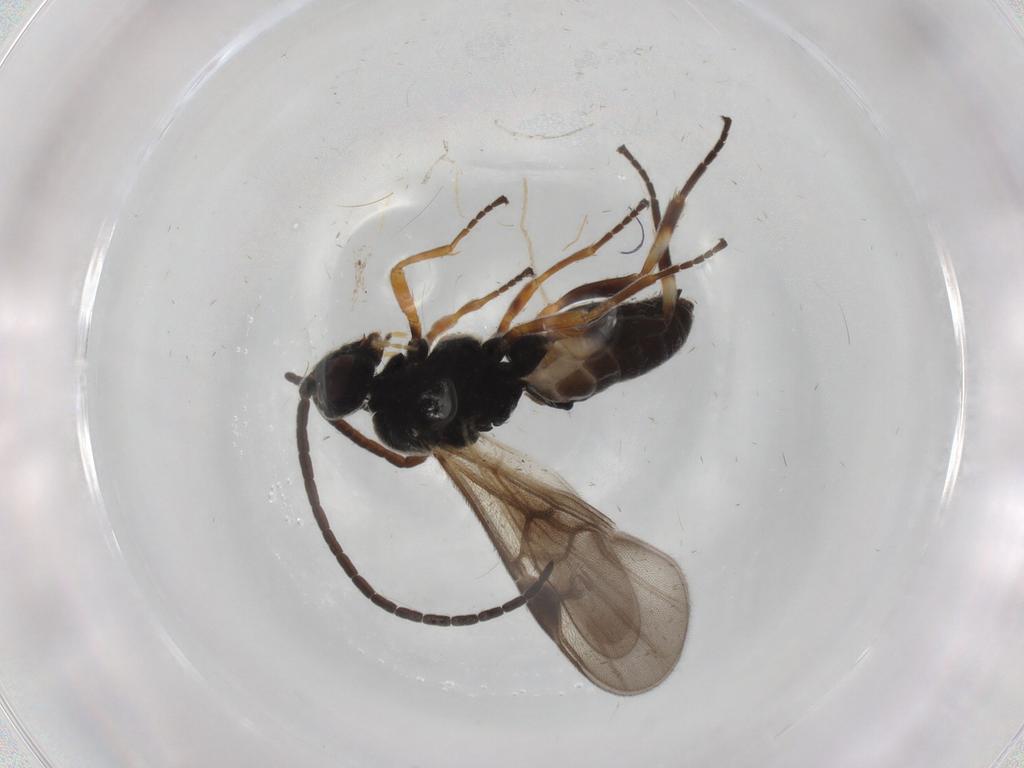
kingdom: Animalia
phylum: Arthropoda
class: Insecta
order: Hymenoptera
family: Braconidae
